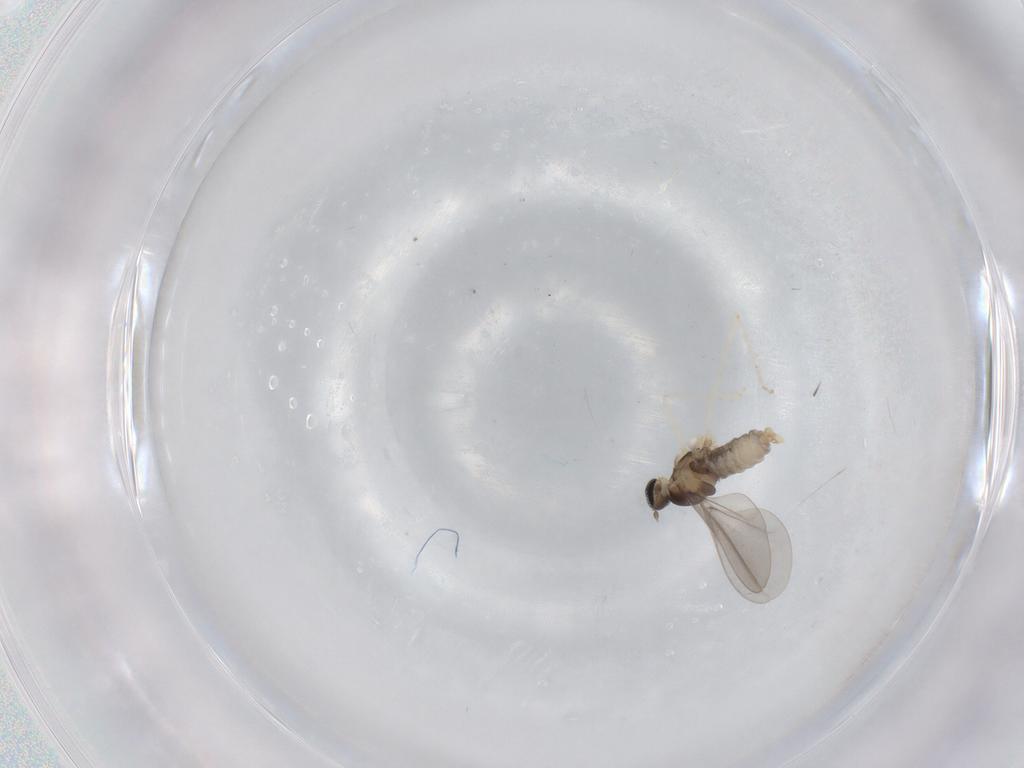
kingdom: Animalia
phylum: Arthropoda
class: Insecta
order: Diptera
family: Cecidomyiidae
